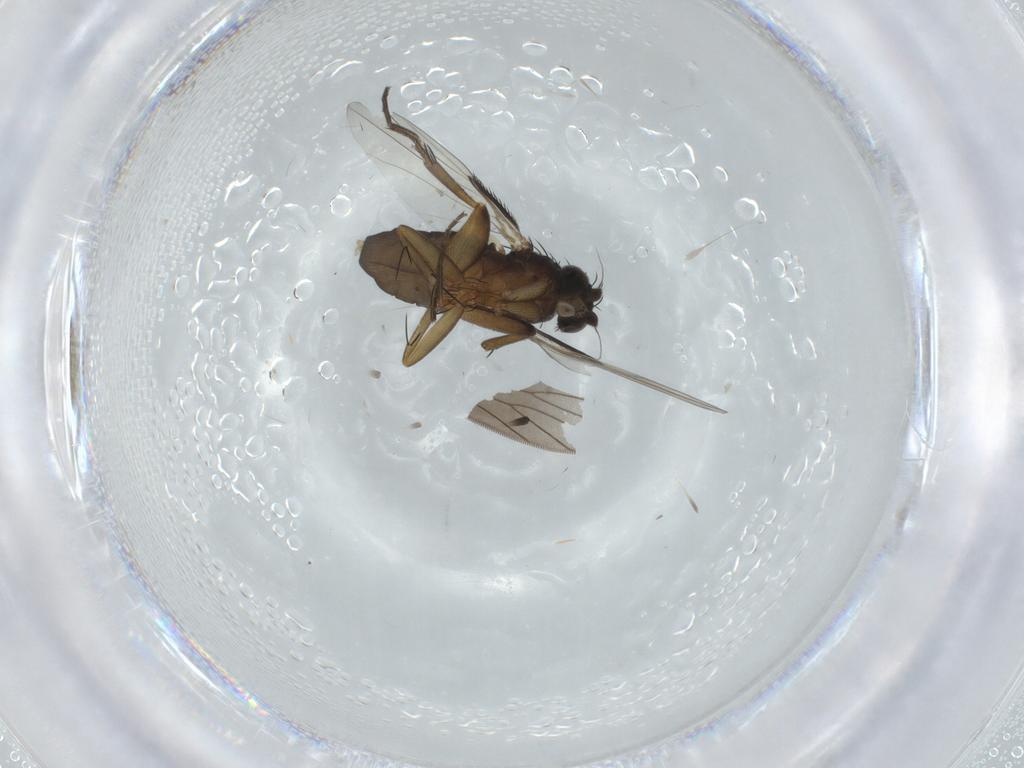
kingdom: Animalia
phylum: Arthropoda
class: Insecta
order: Diptera
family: Phoridae
